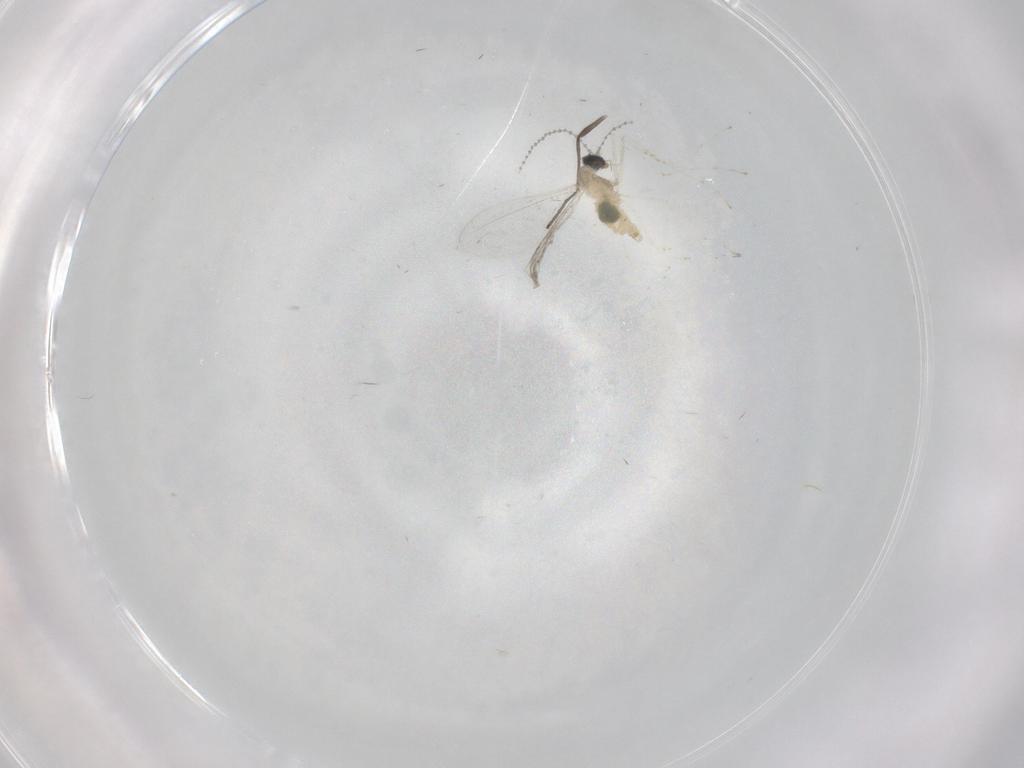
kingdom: Animalia
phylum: Arthropoda
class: Insecta
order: Diptera
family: Cecidomyiidae
